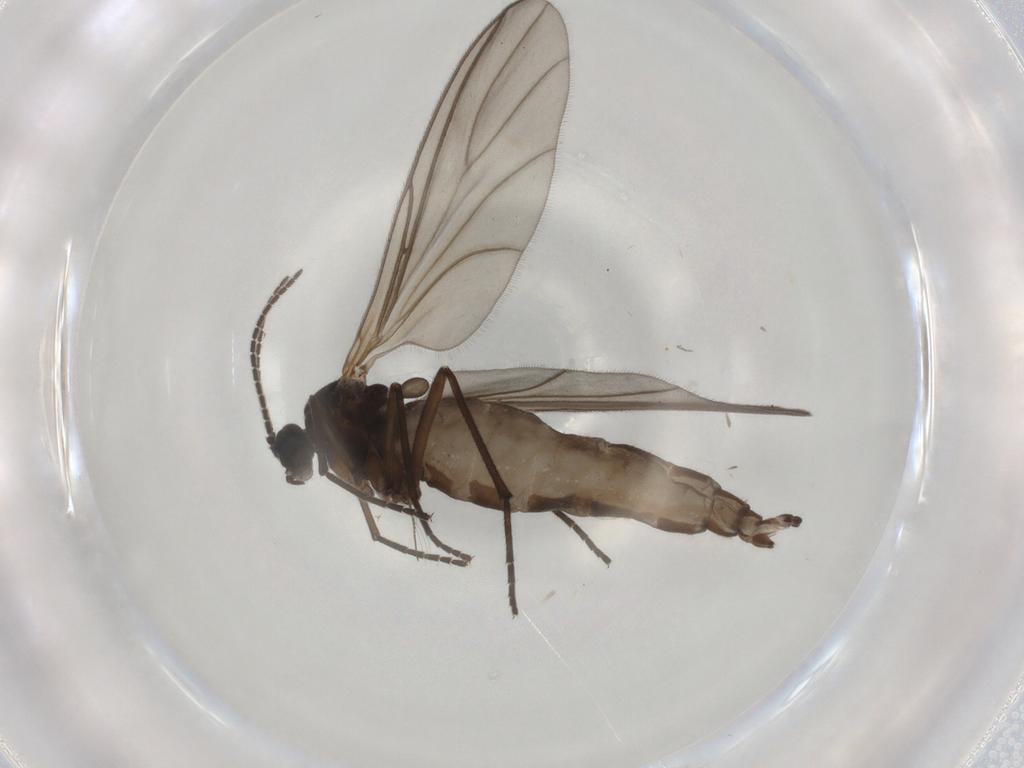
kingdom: Animalia
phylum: Arthropoda
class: Insecta
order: Diptera
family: Sciaridae
